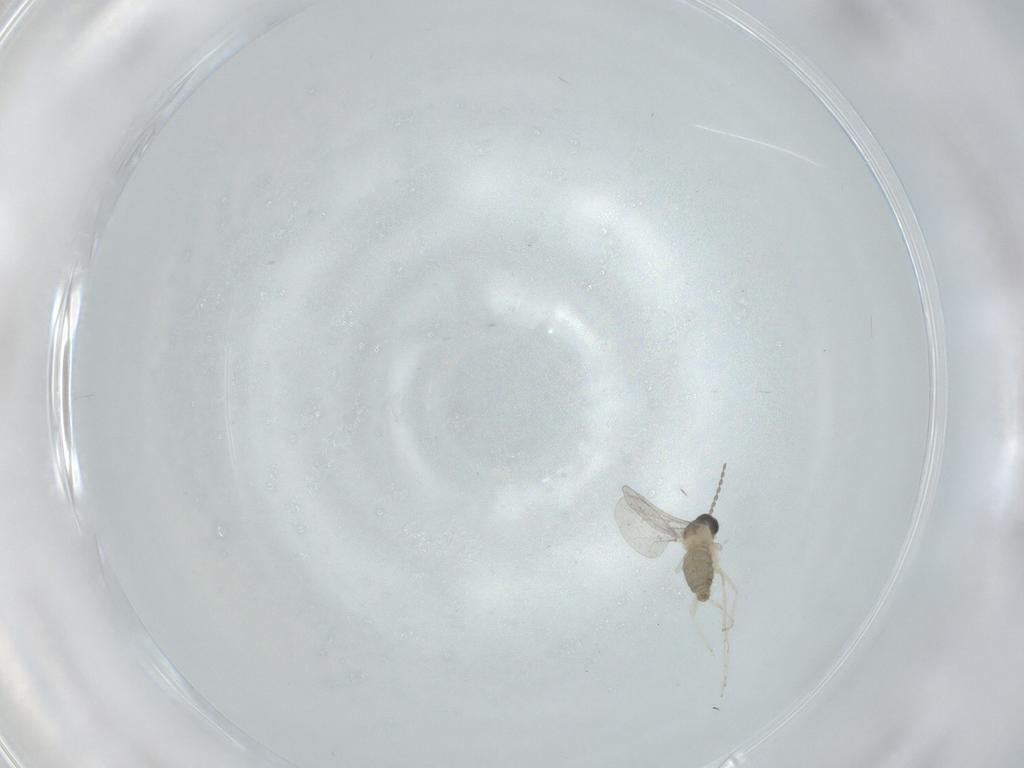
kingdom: Animalia
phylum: Arthropoda
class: Insecta
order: Diptera
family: Cecidomyiidae
